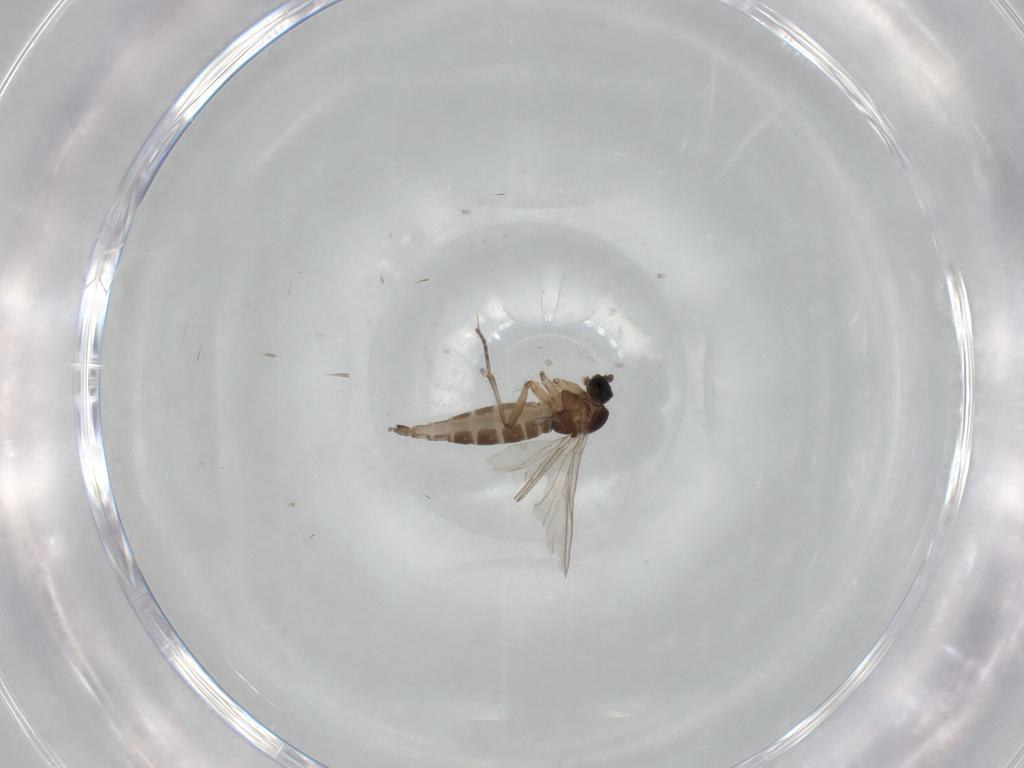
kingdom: Animalia
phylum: Arthropoda
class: Insecta
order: Diptera
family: Sciaridae
